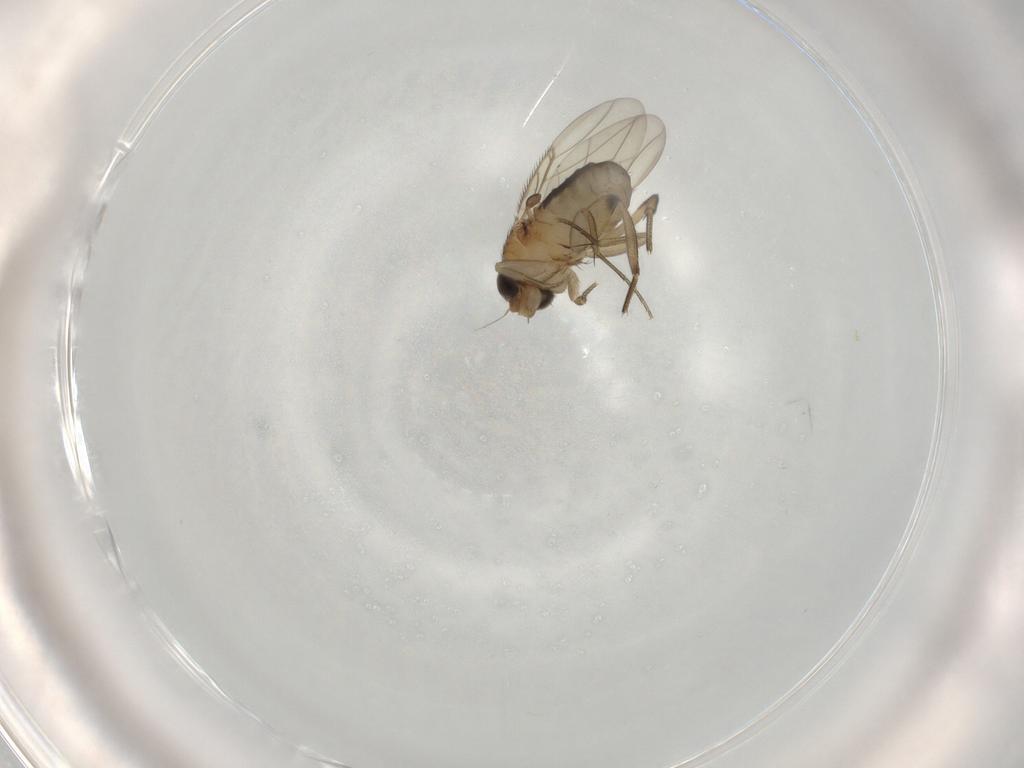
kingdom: Animalia
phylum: Arthropoda
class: Insecta
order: Diptera
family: Phoridae
